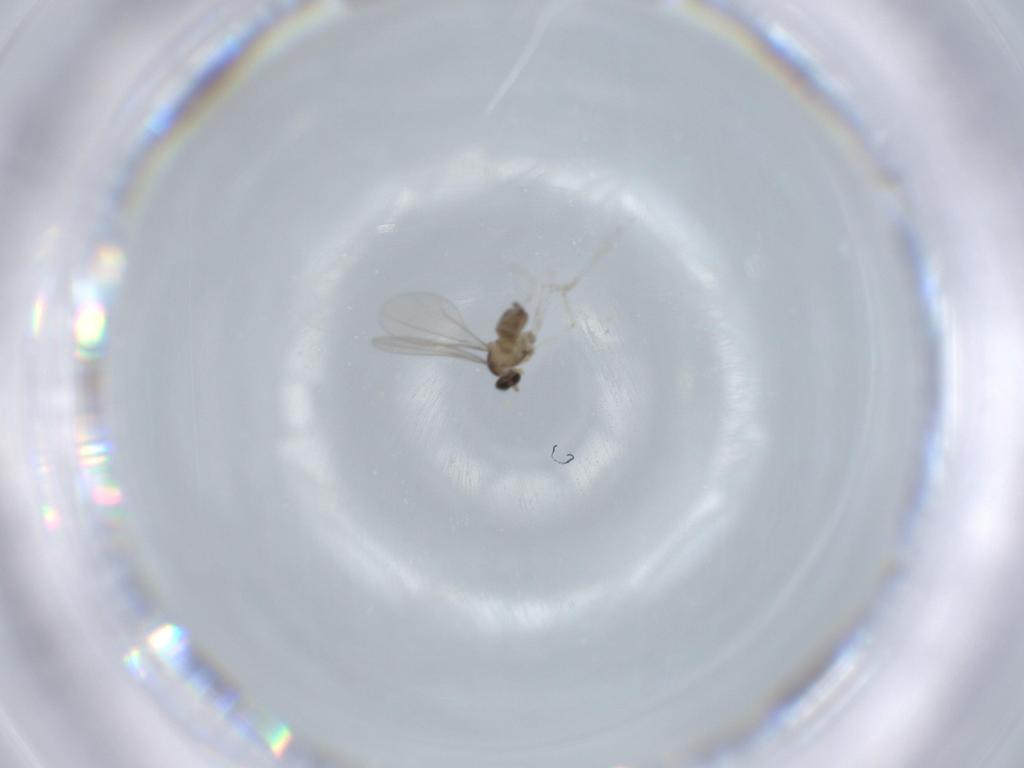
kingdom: Animalia
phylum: Arthropoda
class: Insecta
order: Diptera
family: Cecidomyiidae
